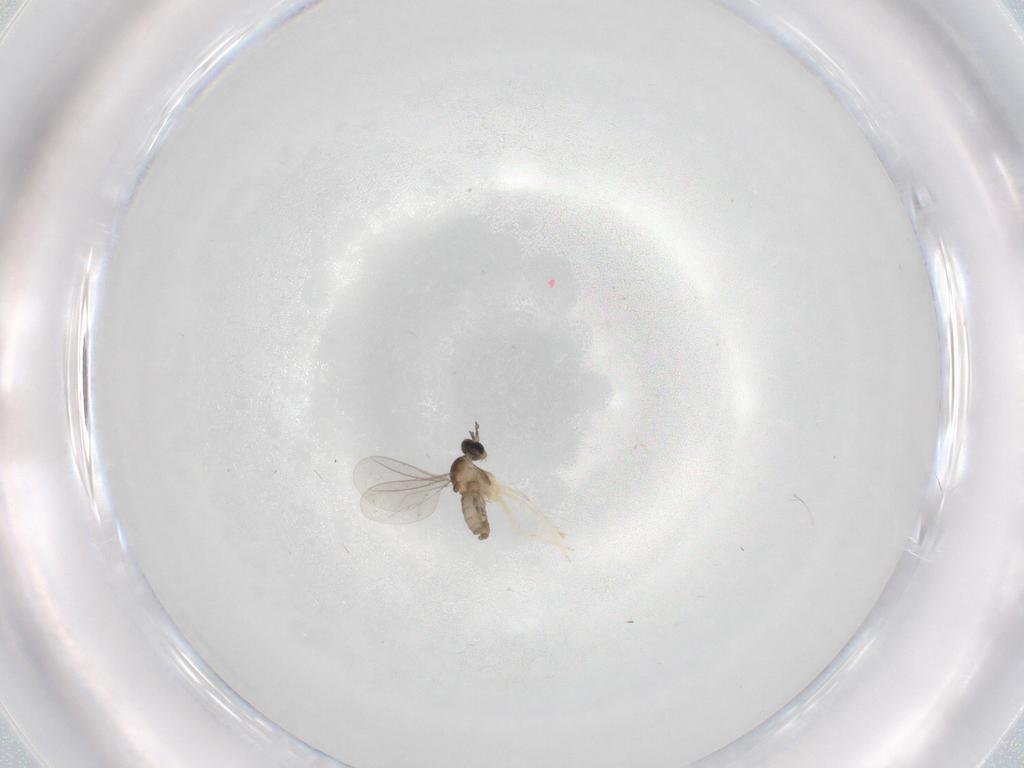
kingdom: Animalia
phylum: Arthropoda
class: Insecta
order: Diptera
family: Cecidomyiidae
